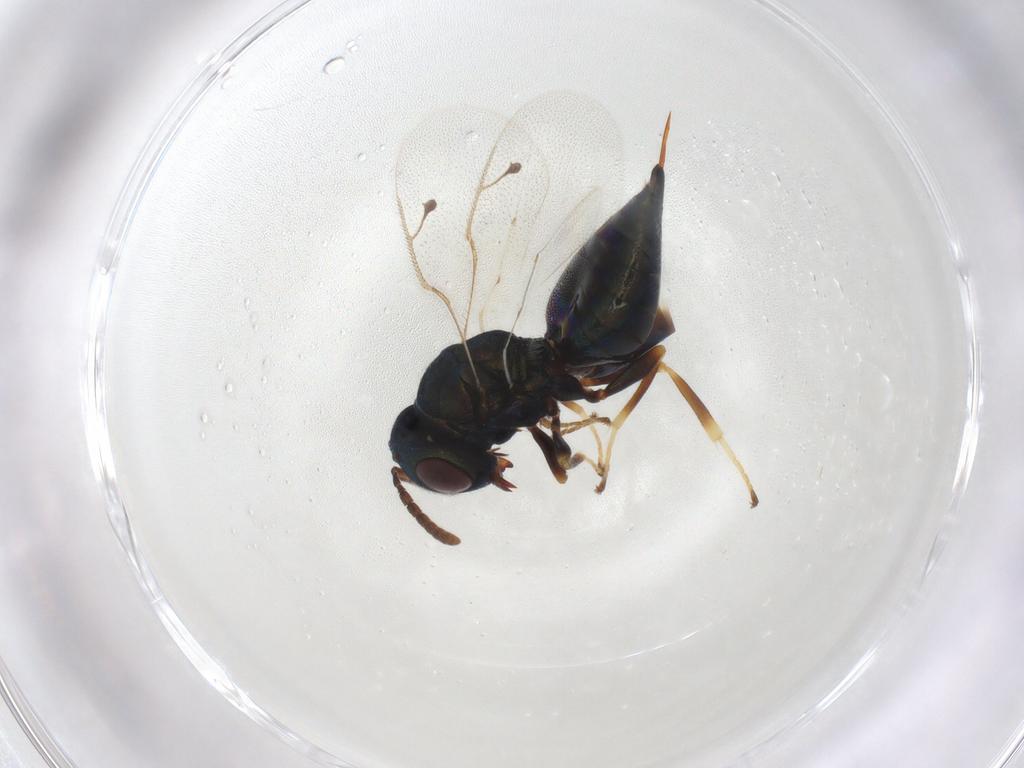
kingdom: Animalia
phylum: Arthropoda
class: Insecta
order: Hymenoptera
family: Pteromalidae
